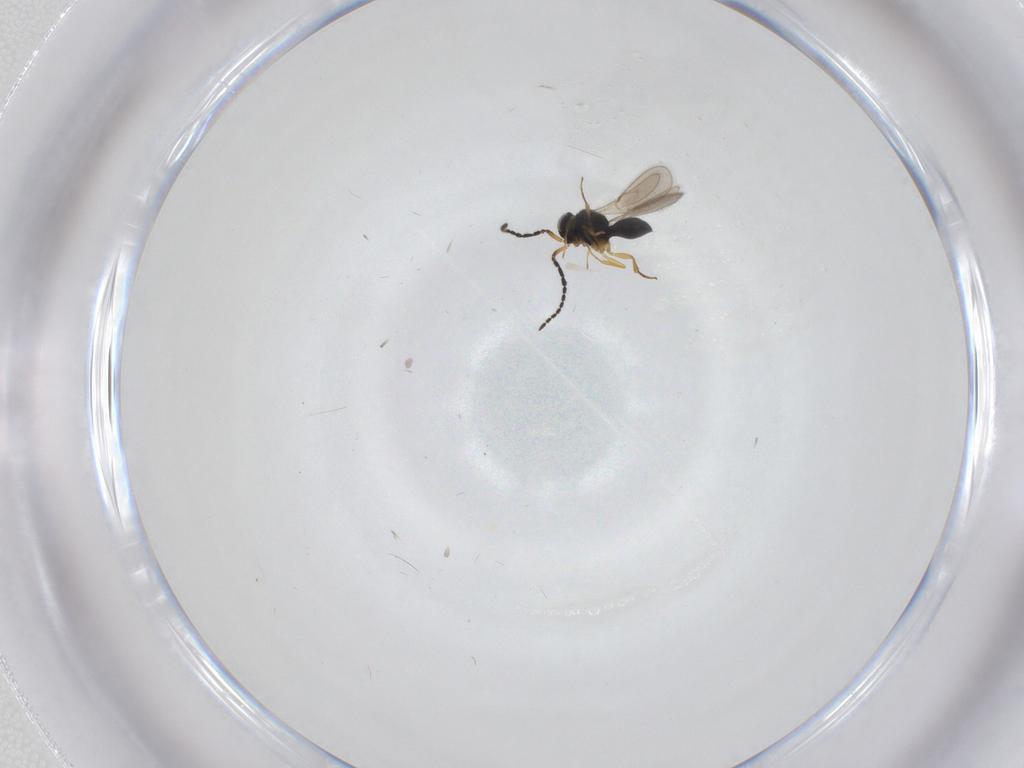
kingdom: Animalia
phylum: Arthropoda
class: Insecta
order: Hymenoptera
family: Scelionidae
